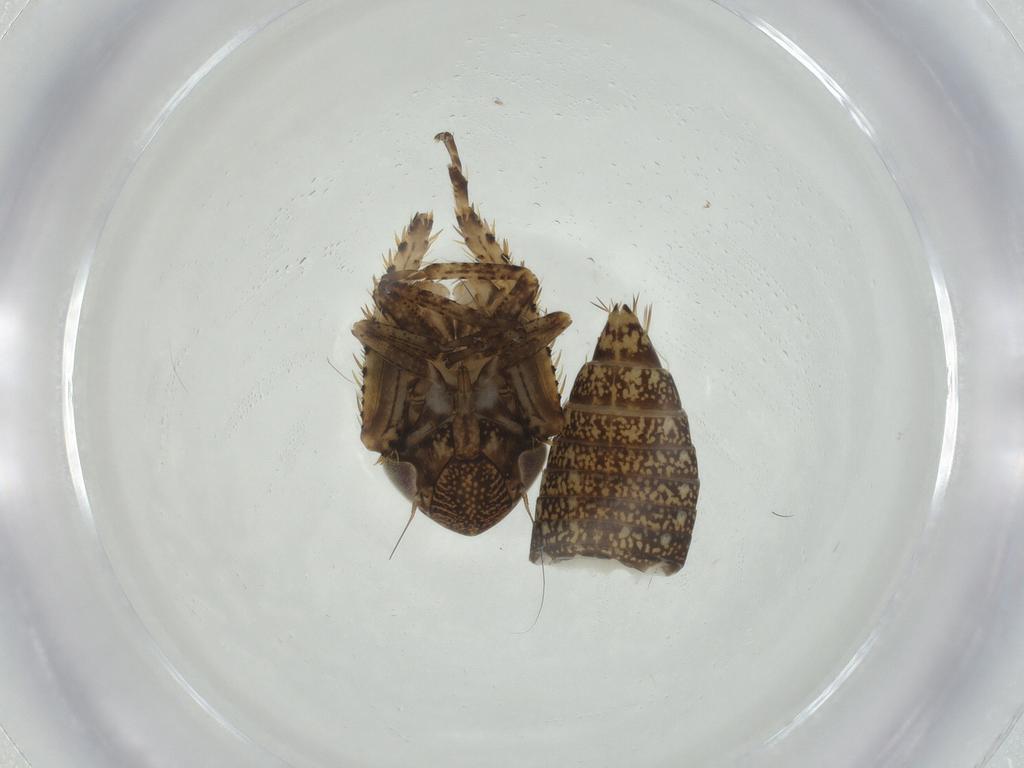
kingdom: Animalia
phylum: Arthropoda
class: Insecta
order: Hemiptera
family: Cicadellidae
